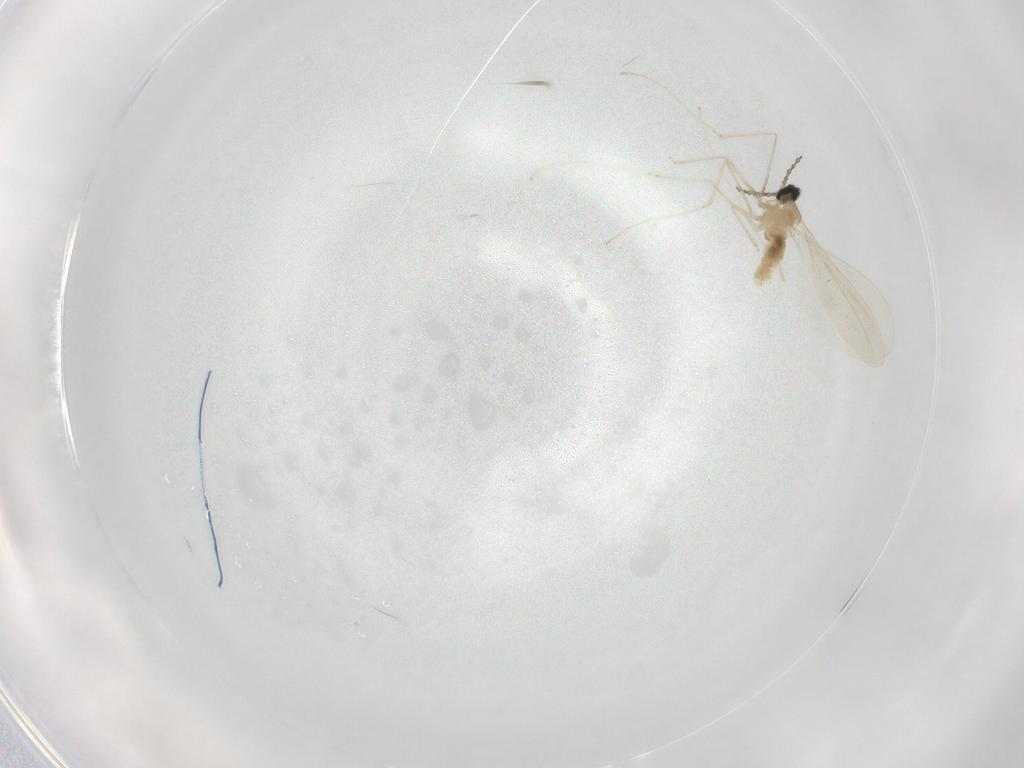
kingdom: Animalia
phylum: Arthropoda
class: Insecta
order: Diptera
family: Cecidomyiidae
